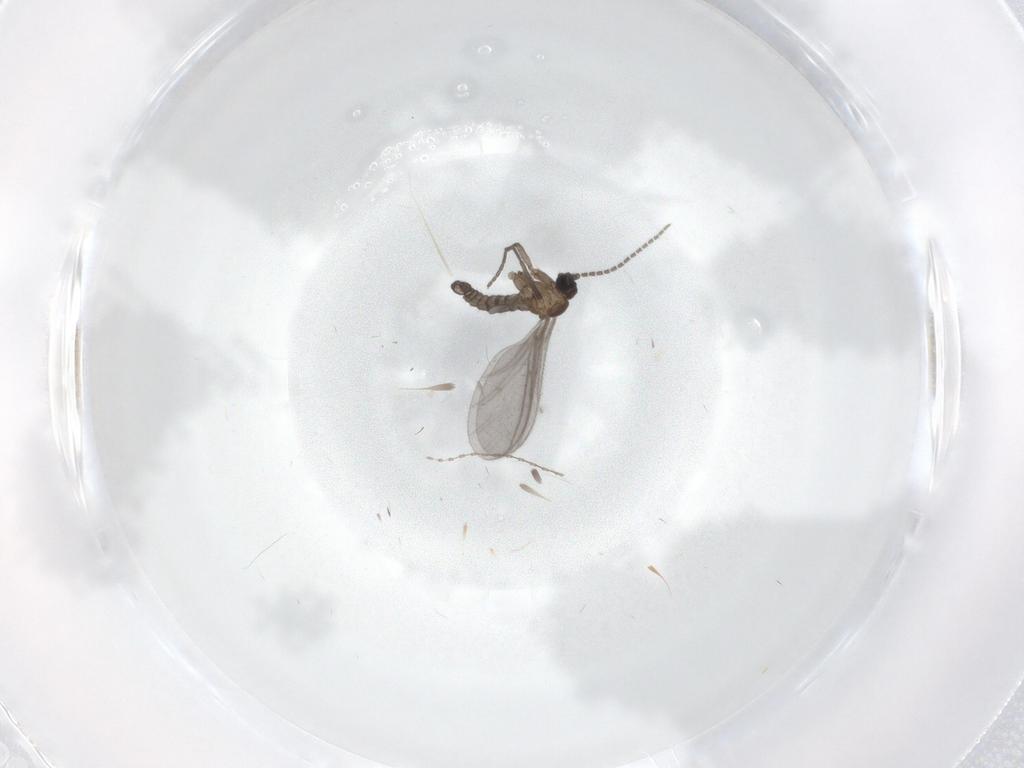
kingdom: Animalia
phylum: Arthropoda
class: Insecta
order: Diptera
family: Sciaridae
